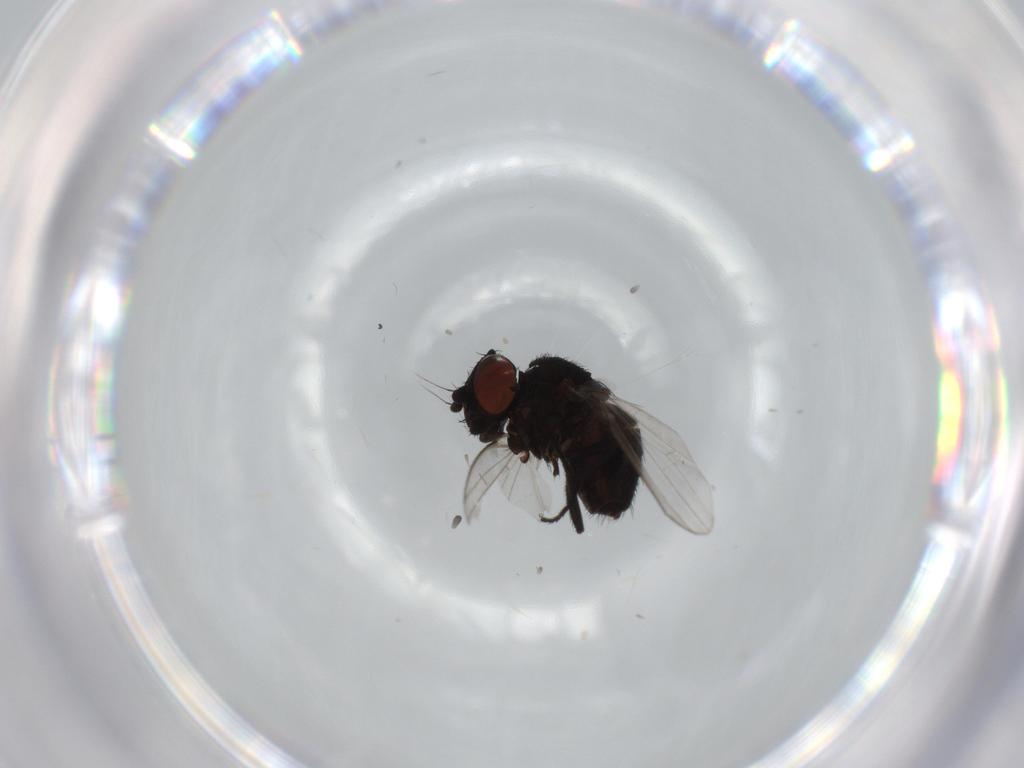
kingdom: Animalia
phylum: Arthropoda
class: Insecta
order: Diptera
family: Milichiidae
